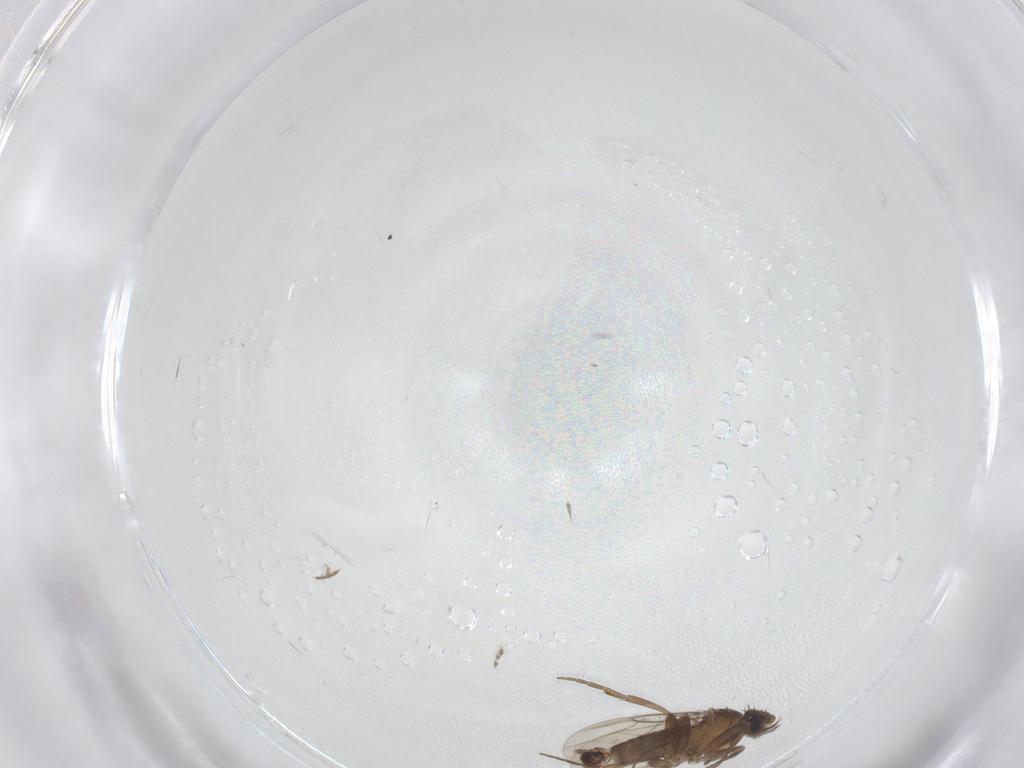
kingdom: Animalia
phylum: Arthropoda
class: Insecta
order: Diptera
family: Phoridae
